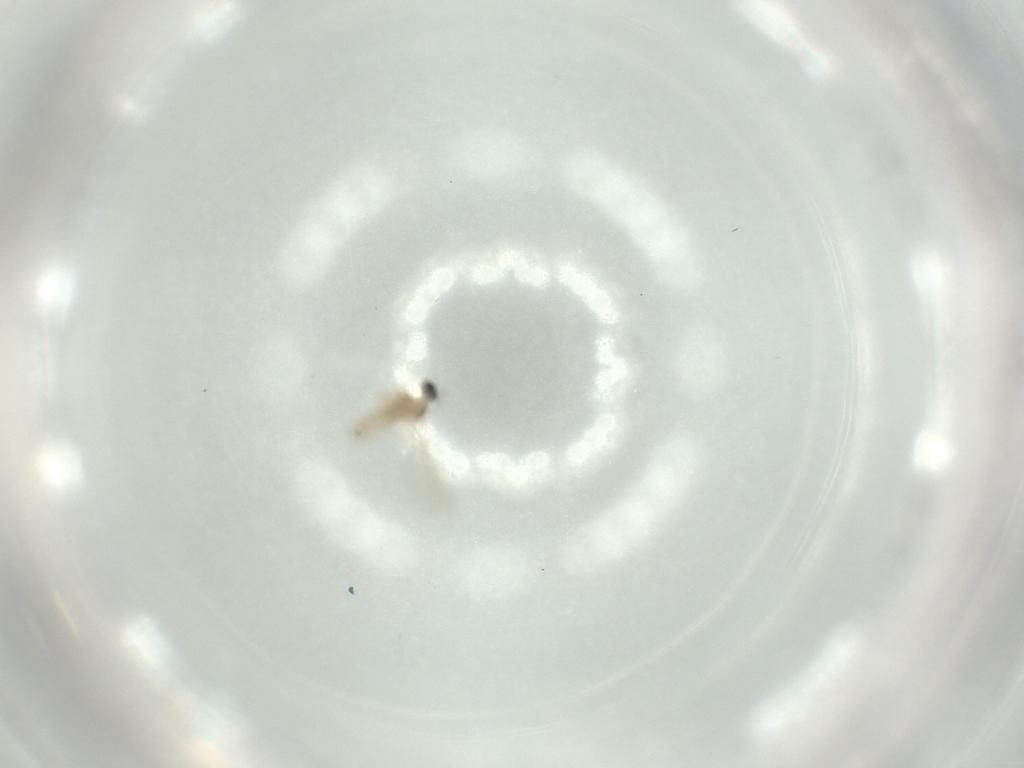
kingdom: Animalia
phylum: Arthropoda
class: Insecta
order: Diptera
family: Cecidomyiidae
